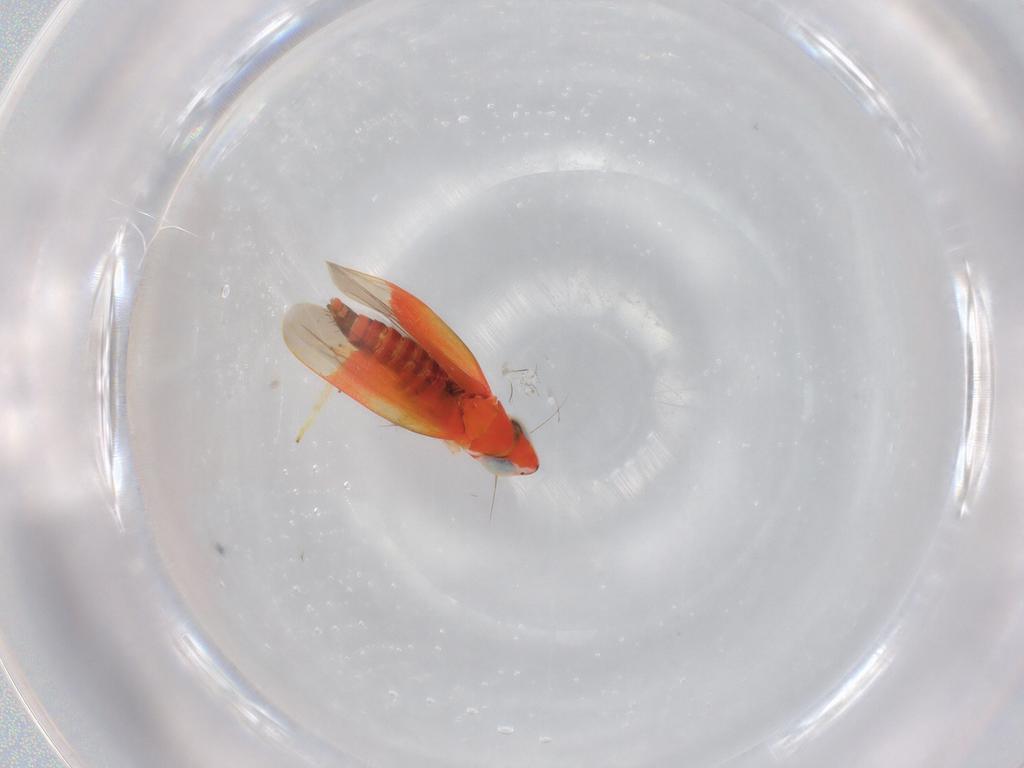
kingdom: Animalia
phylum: Arthropoda
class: Insecta
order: Hemiptera
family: Cicadellidae
